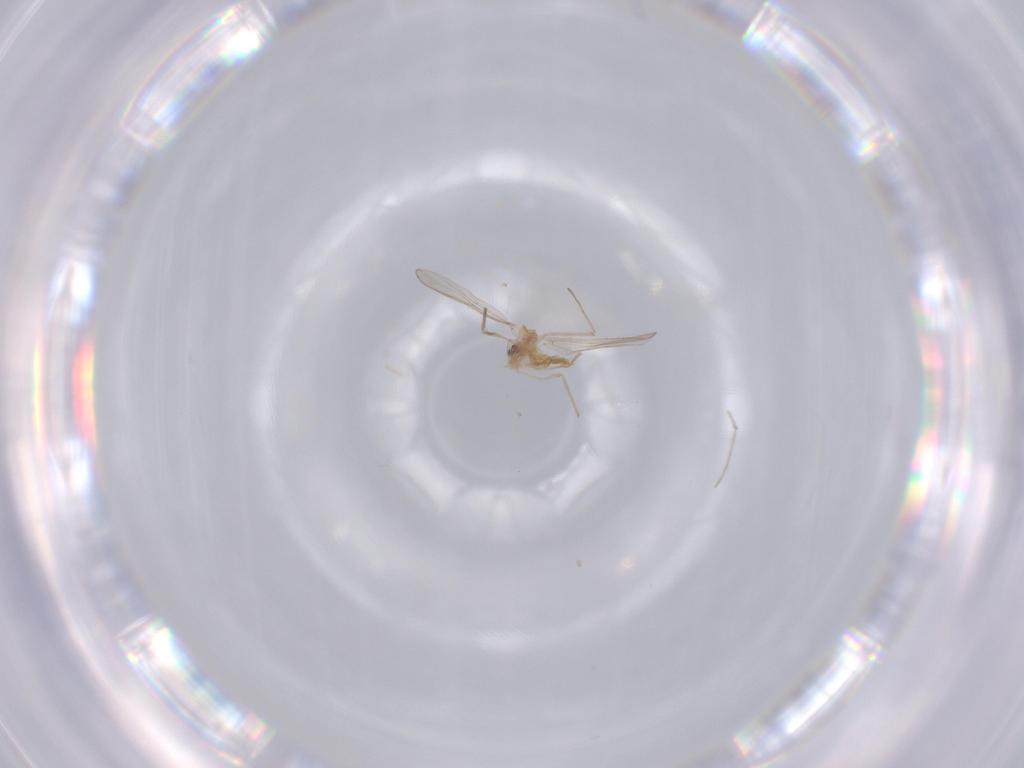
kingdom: Animalia
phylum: Arthropoda
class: Insecta
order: Diptera
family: Chironomidae
